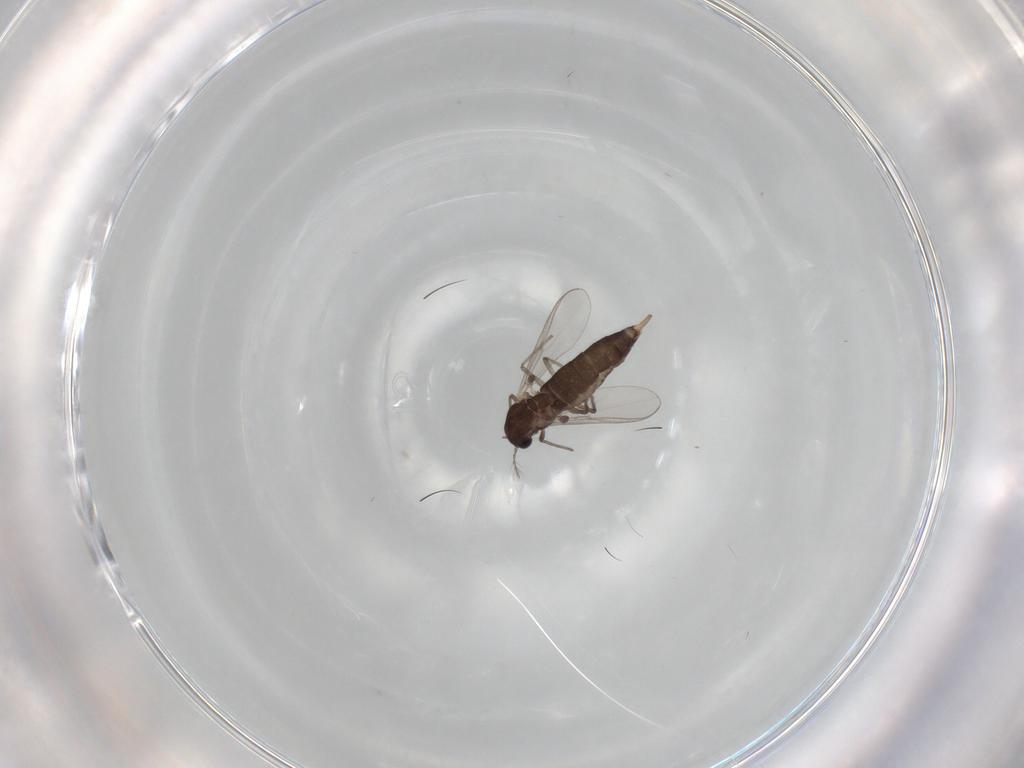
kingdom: Animalia
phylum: Arthropoda
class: Insecta
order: Diptera
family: Chironomidae
